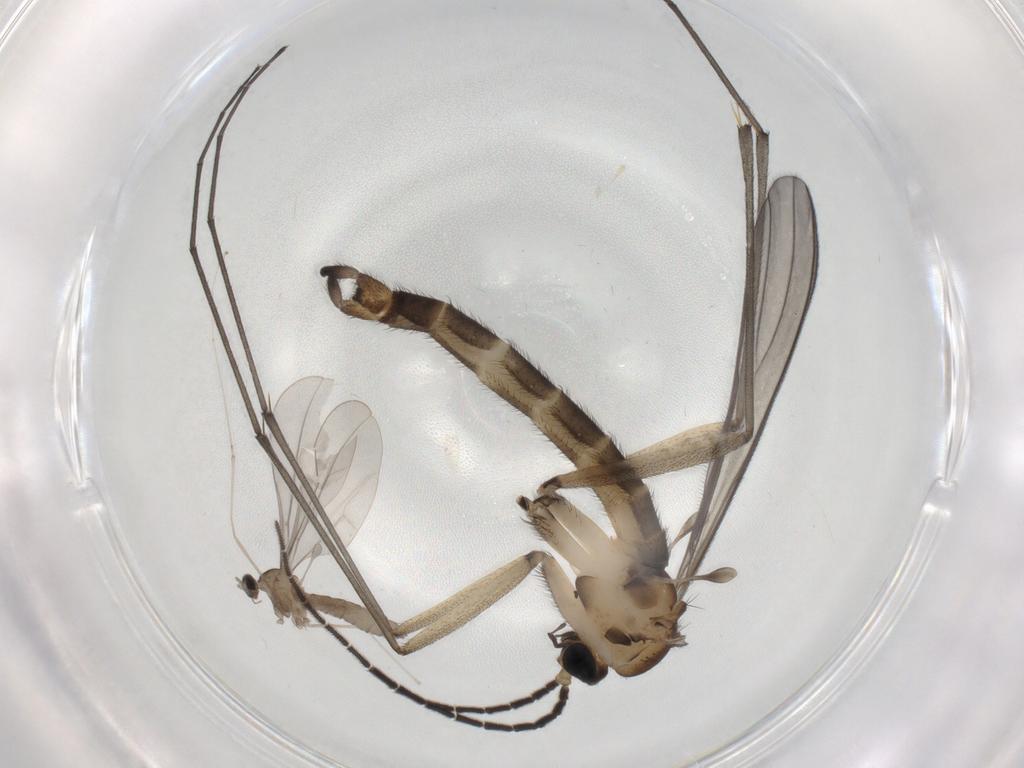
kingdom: Animalia
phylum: Arthropoda
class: Insecta
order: Diptera
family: Sciaridae
